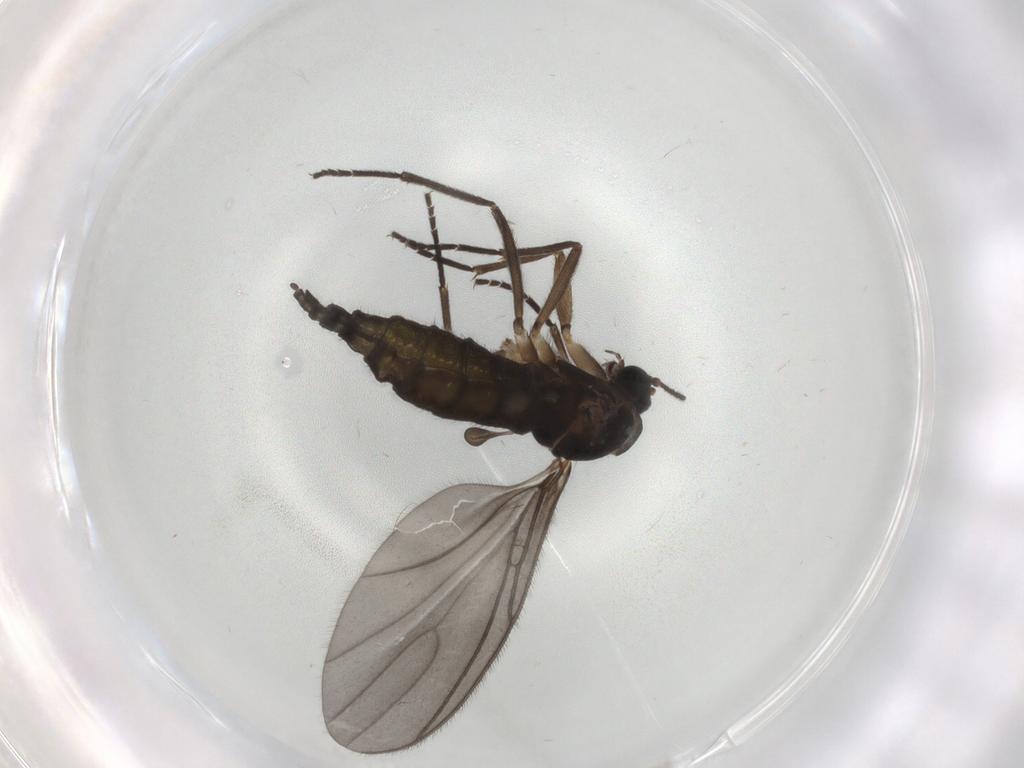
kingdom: Animalia
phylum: Arthropoda
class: Insecta
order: Diptera
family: Sciaridae
